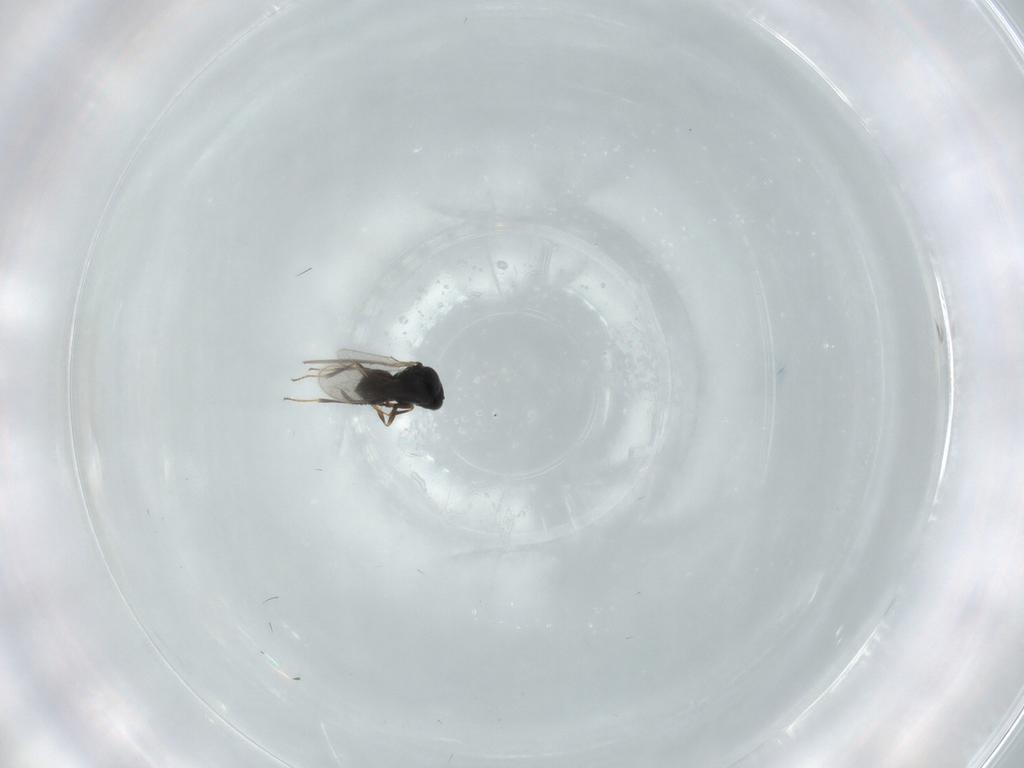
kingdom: Animalia
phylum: Arthropoda
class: Insecta
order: Hymenoptera
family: Scelionidae
